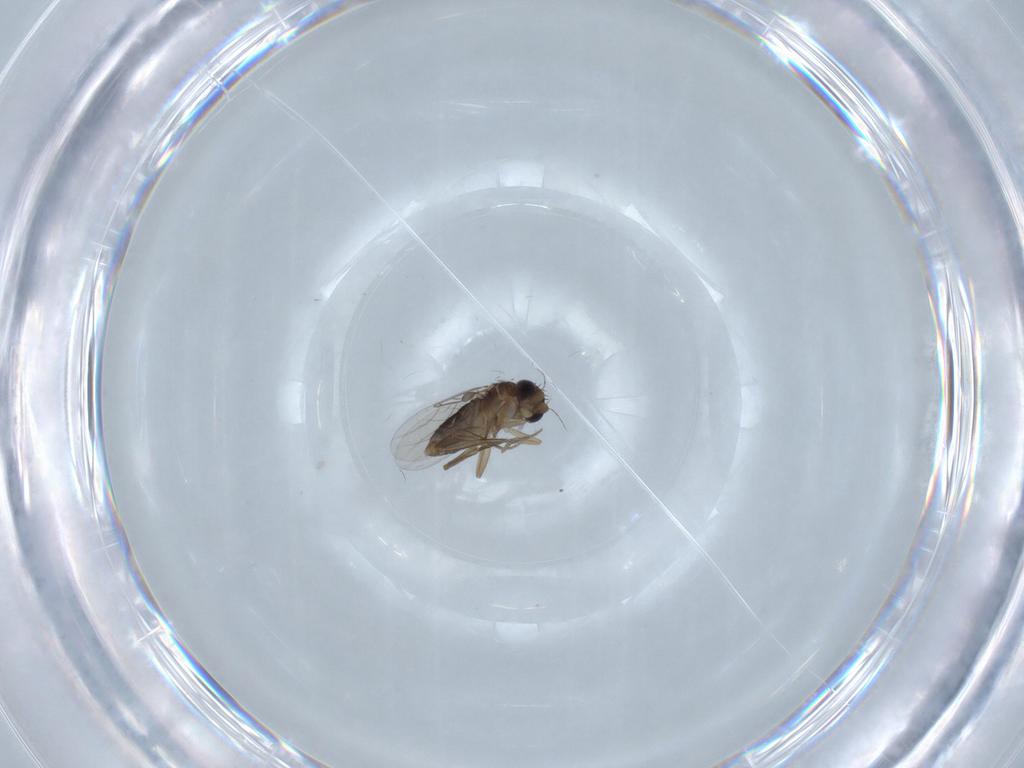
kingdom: Animalia
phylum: Arthropoda
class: Insecta
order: Diptera
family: Phoridae
